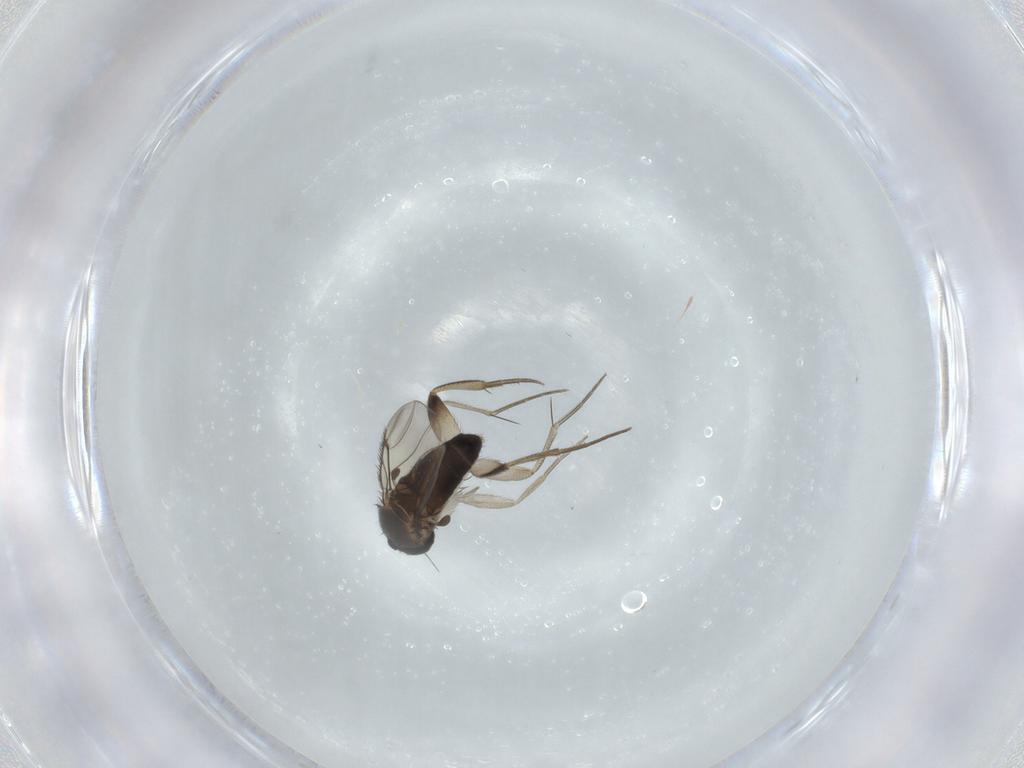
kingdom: Animalia
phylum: Arthropoda
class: Insecta
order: Diptera
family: Phoridae
